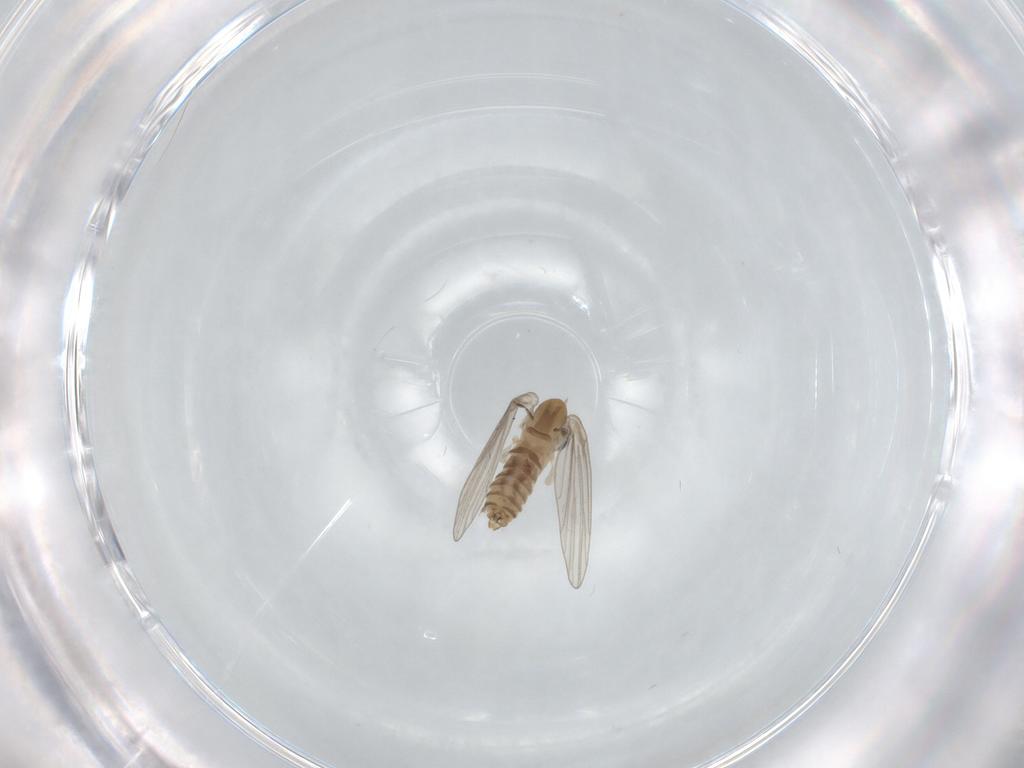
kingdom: Animalia
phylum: Arthropoda
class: Insecta
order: Diptera
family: Psychodidae
